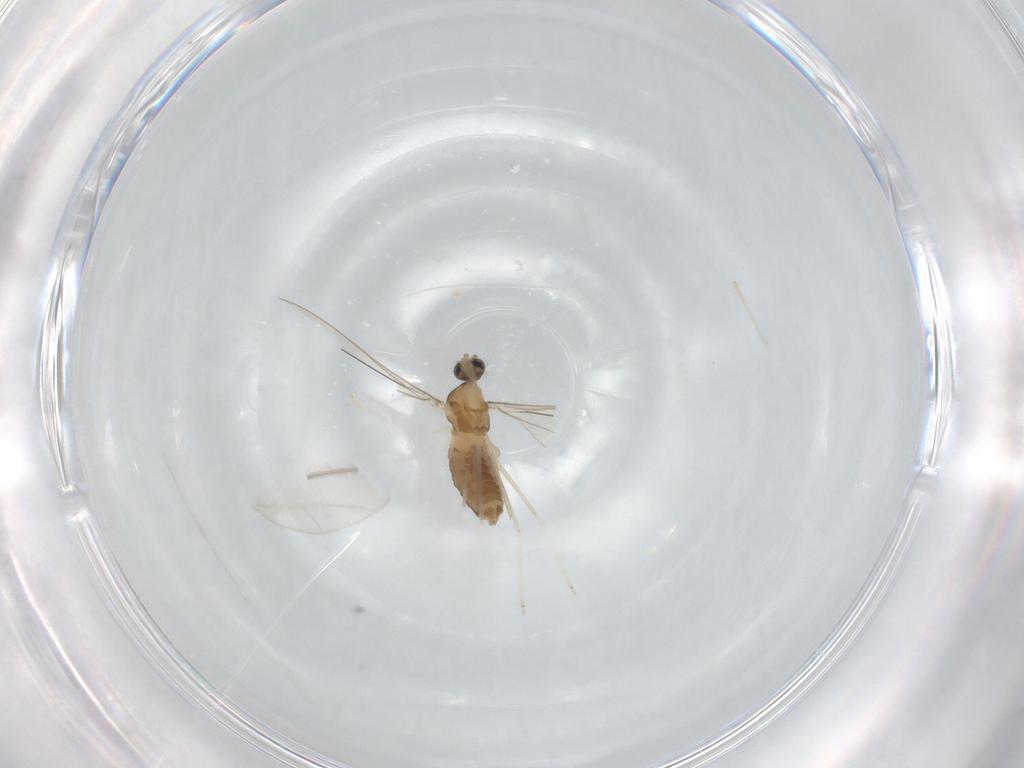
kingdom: Animalia
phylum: Arthropoda
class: Insecta
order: Diptera
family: Cecidomyiidae
